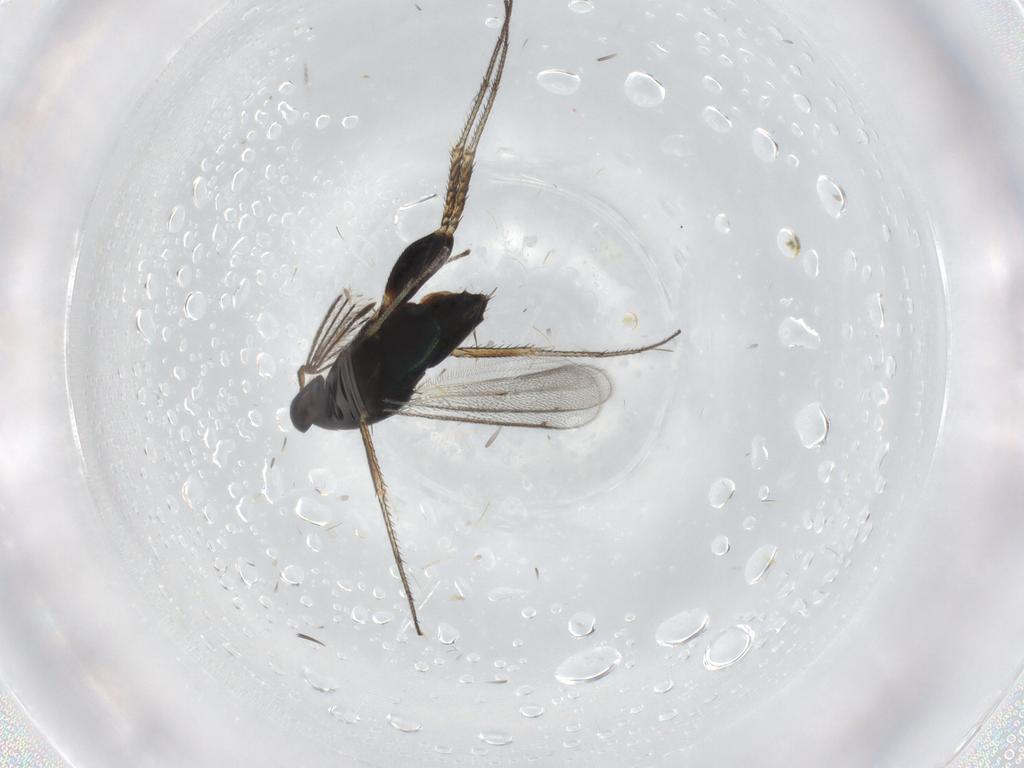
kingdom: Animalia
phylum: Arthropoda
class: Insecta
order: Hymenoptera
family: Eulophidae
